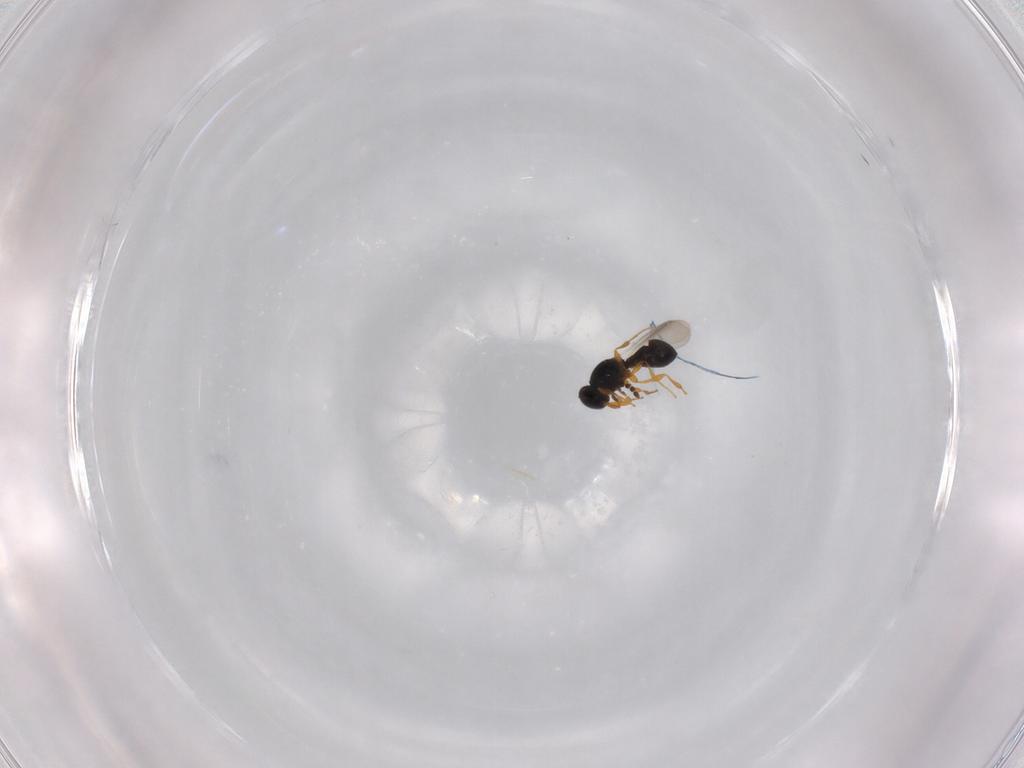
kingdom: Animalia
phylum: Arthropoda
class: Insecta
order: Hymenoptera
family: Platygastridae
